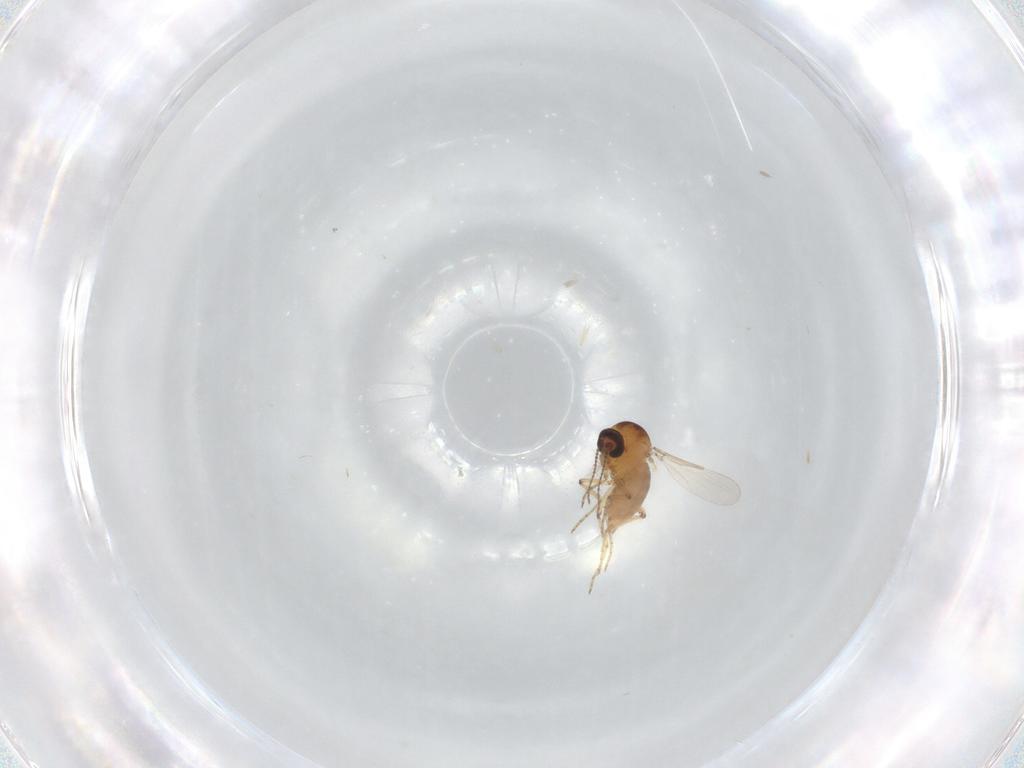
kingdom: Animalia
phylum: Arthropoda
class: Insecta
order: Diptera
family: Ceratopogonidae
